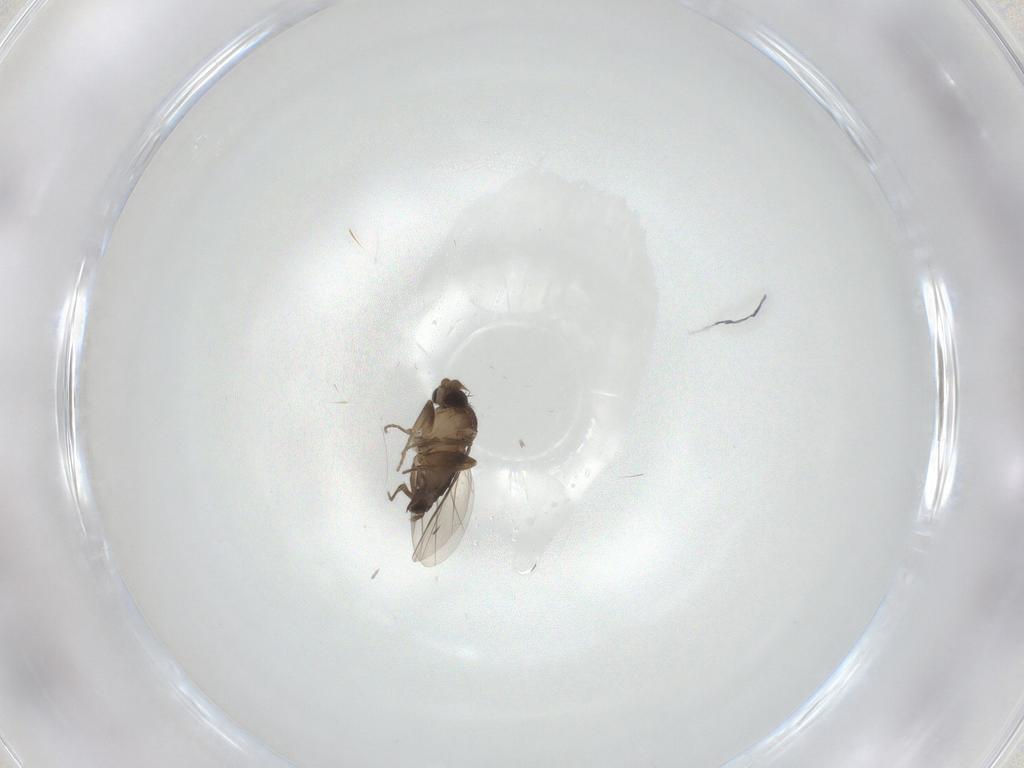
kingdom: Animalia
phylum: Arthropoda
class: Insecta
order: Diptera
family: Phoridae
